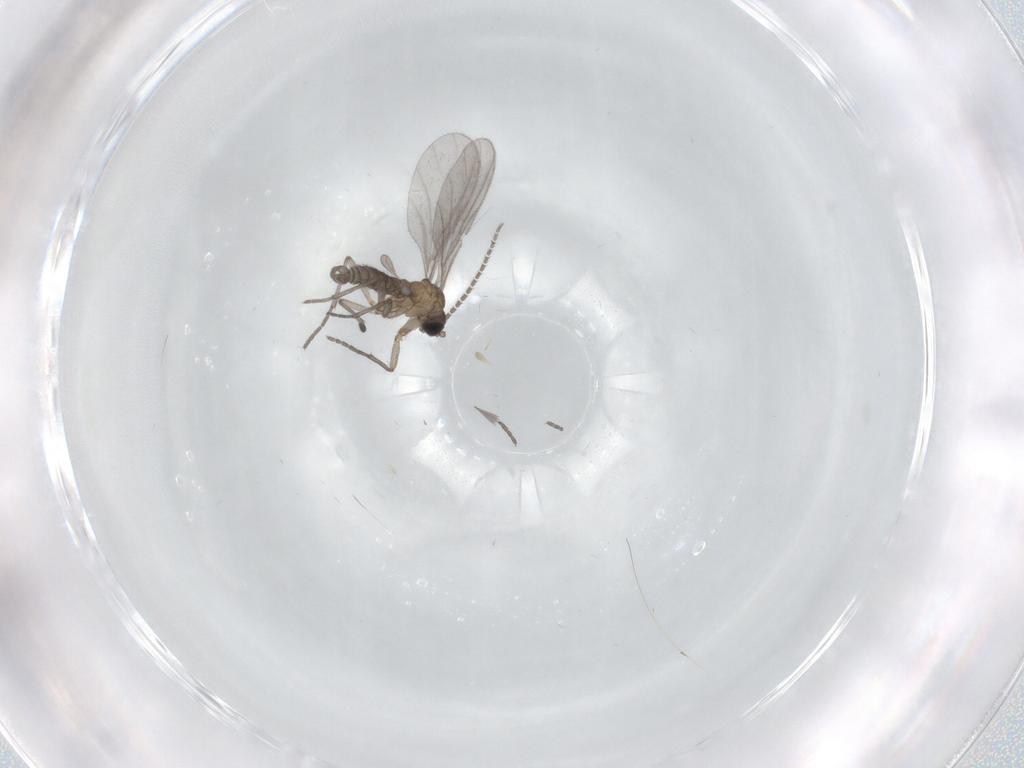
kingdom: Animalia
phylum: Arthropoda
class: Insecta
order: Diptera
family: Sciaridae
